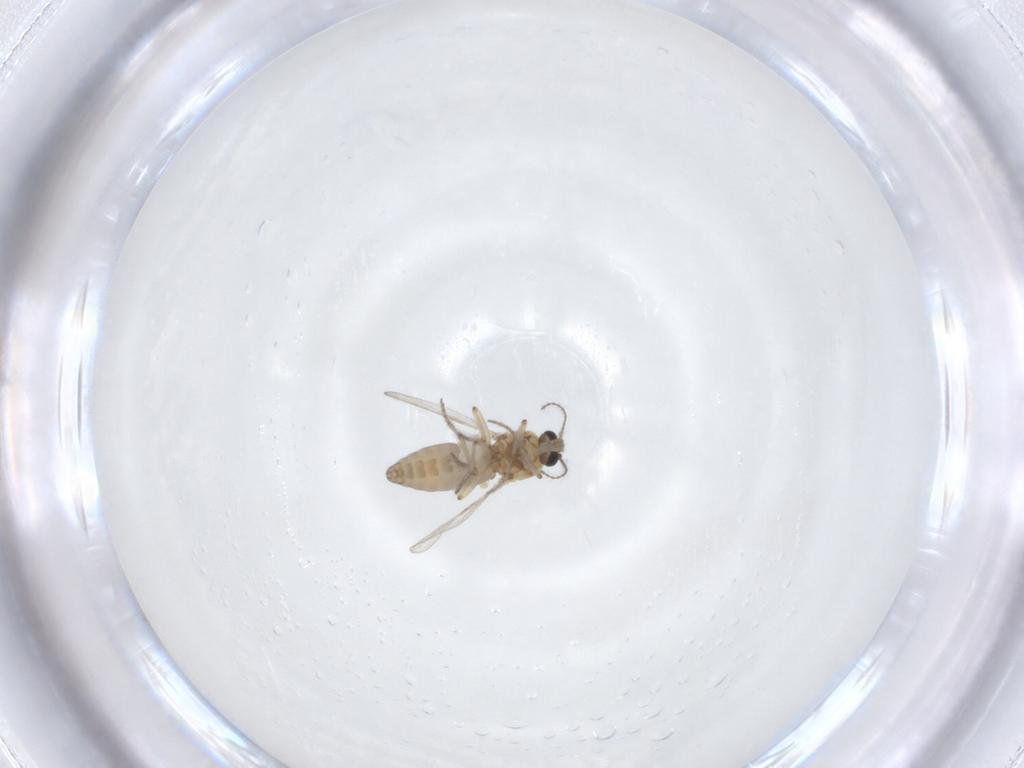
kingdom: Animalia
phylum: Arthropoda
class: Insecta
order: Diptera
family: Ceratopogonidae
